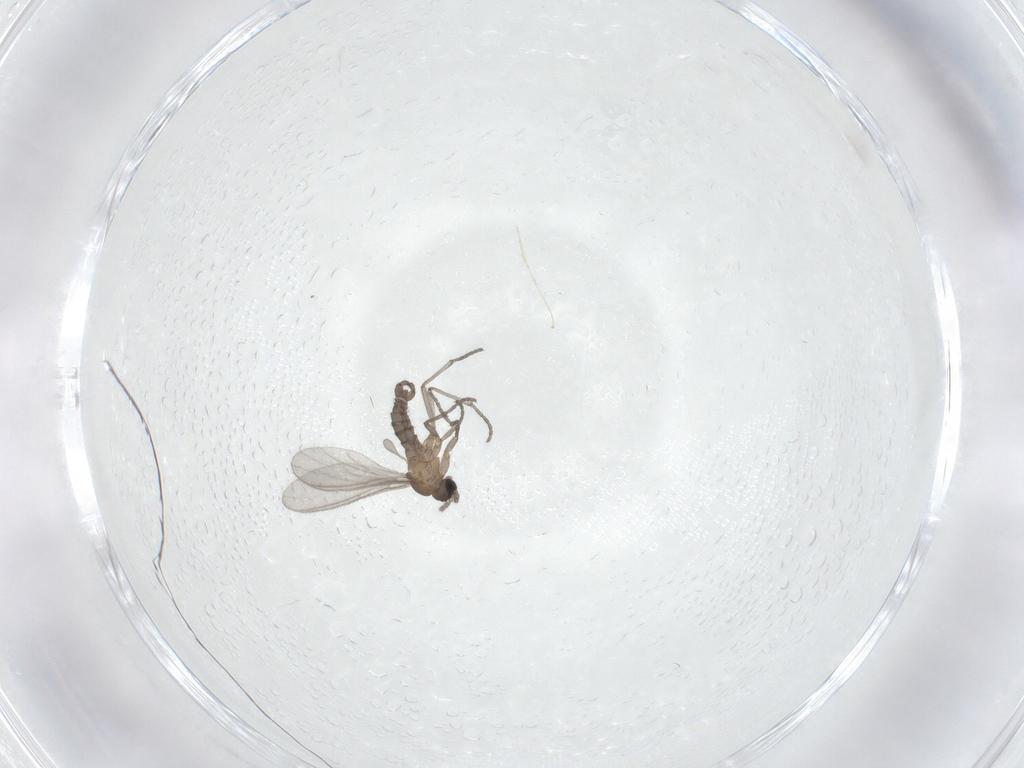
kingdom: Animalia
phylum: Arthropoda
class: Insecta
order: Diptera
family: Sciaridae
